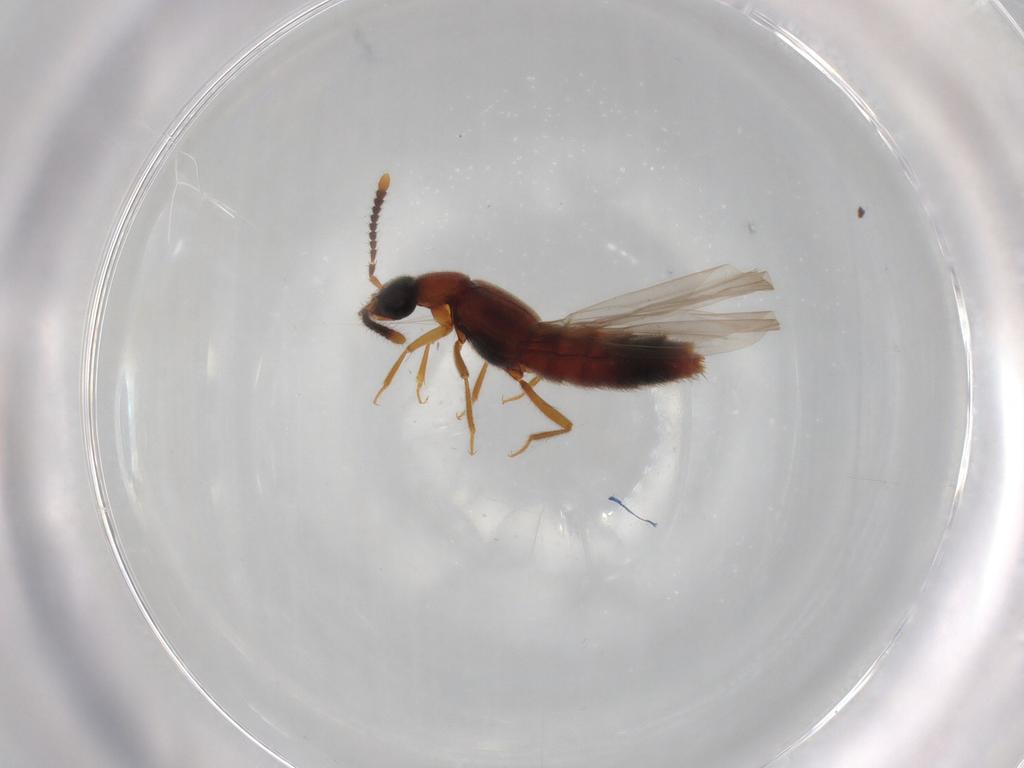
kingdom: Animalia
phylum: Arthropoda
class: Insecta
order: Coleoptera
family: Staphylinidae
